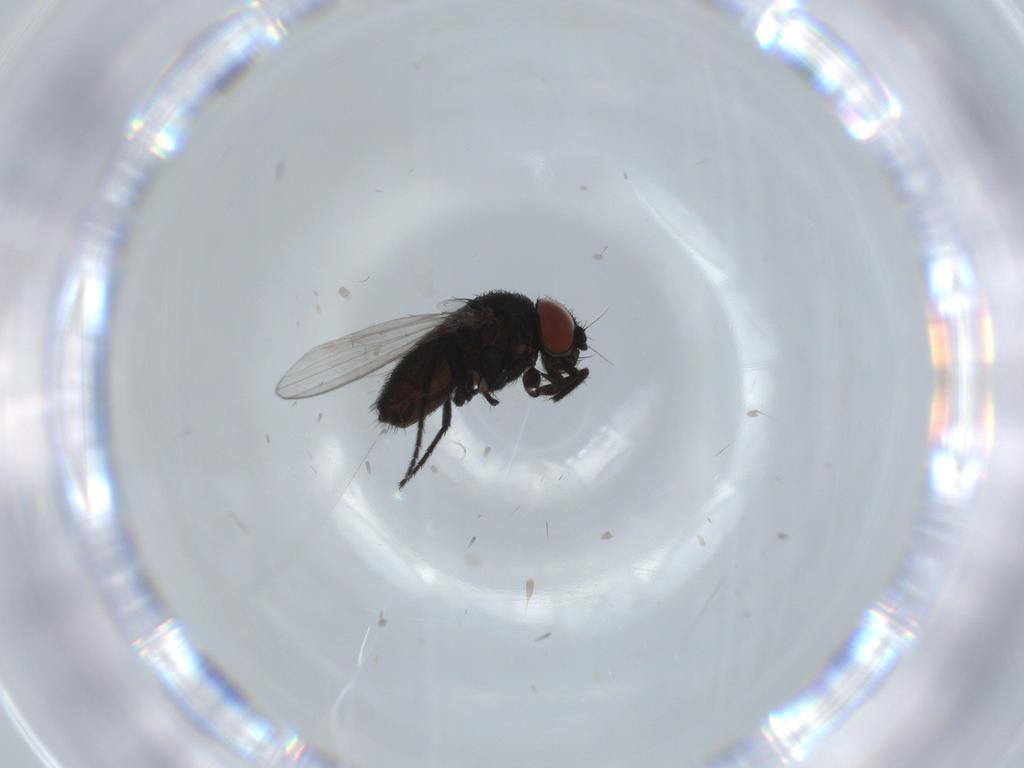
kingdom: Animalia
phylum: Arthropoda
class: Insecta
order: Diptera
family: Milichiidae
